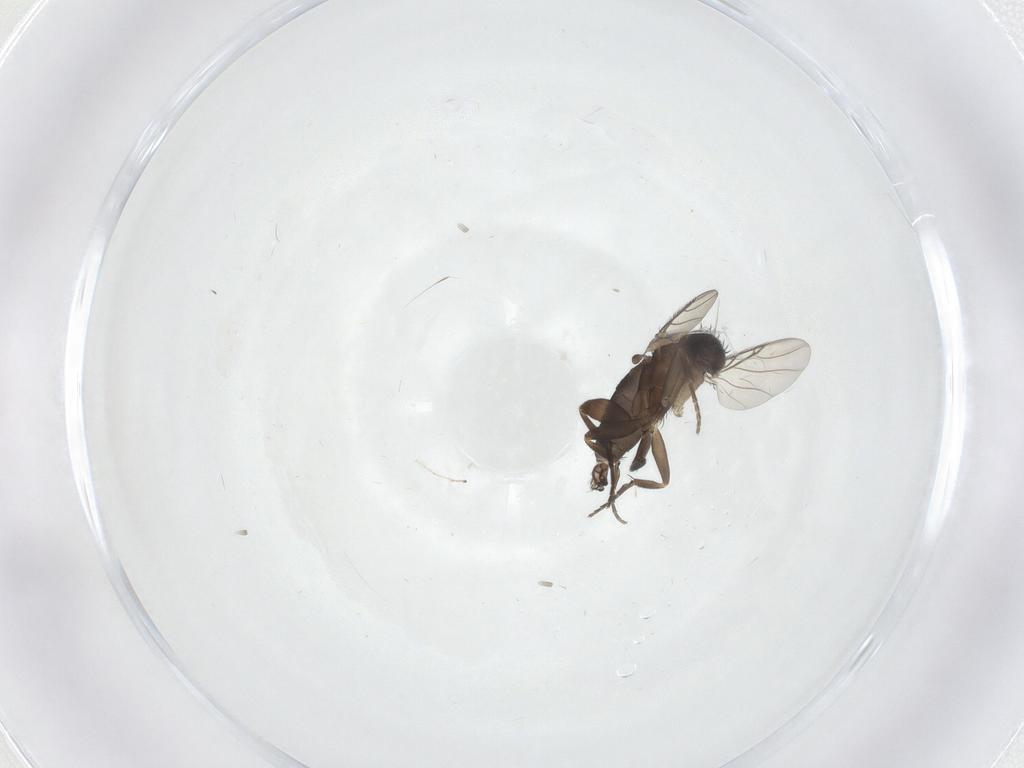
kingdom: Animalia
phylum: Arthropoda
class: Insecta
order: Diptera
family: Phoridae
